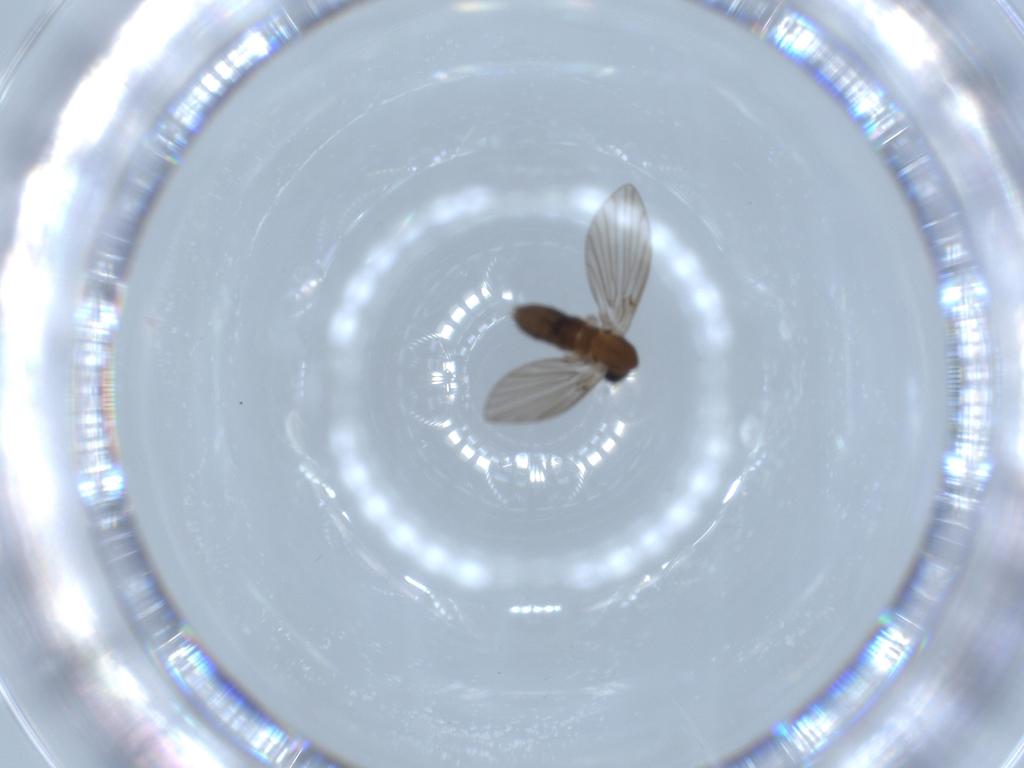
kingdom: Animalia
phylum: Arthropoda
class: Insecta
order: Diptera
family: Psychodidae
